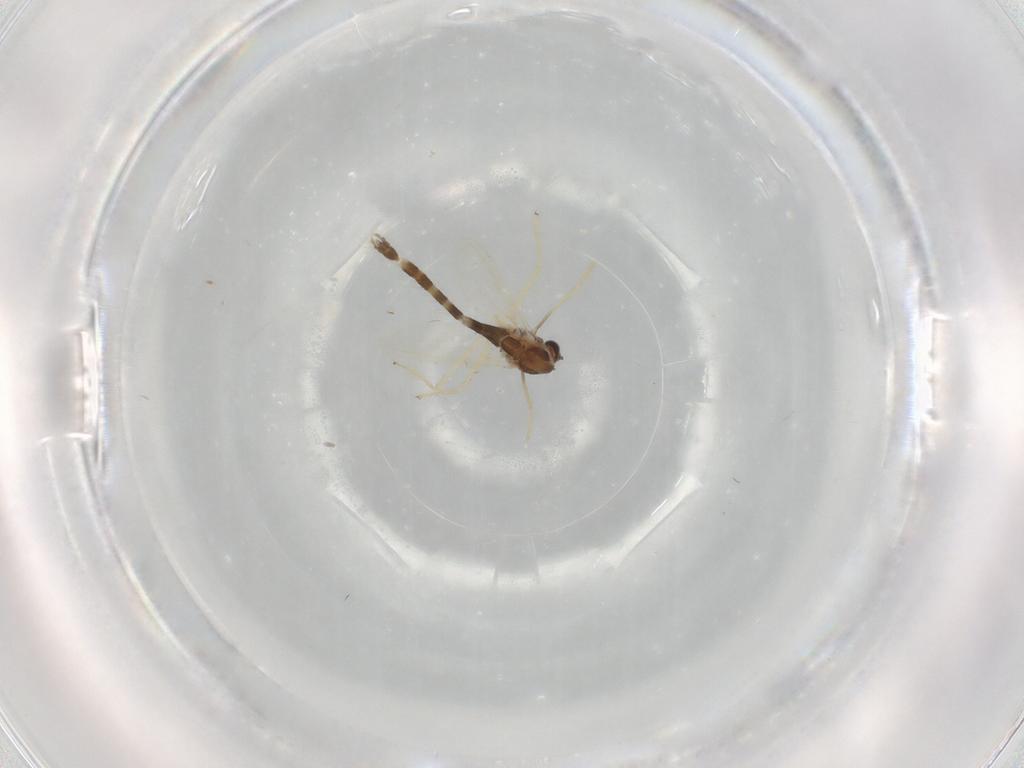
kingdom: Animalia
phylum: Arthropoda
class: Insecta
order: Diptera
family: Chironomidae
